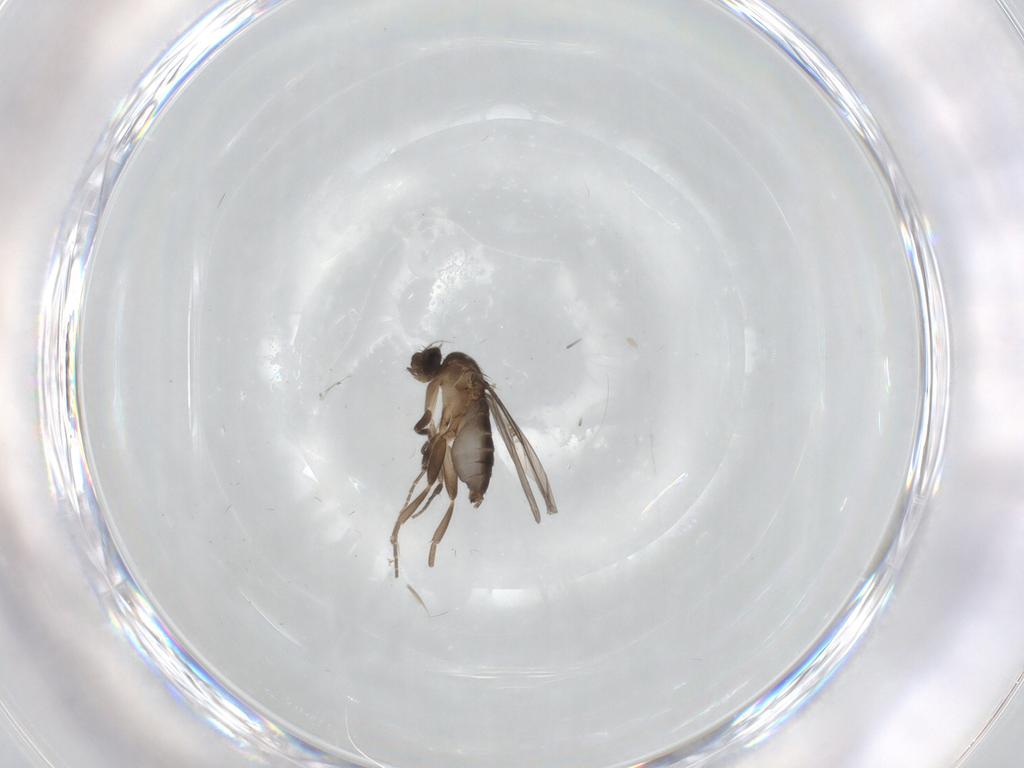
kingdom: Animalia
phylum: Arthropoda
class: Insecta
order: Diptera
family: Phoridae
